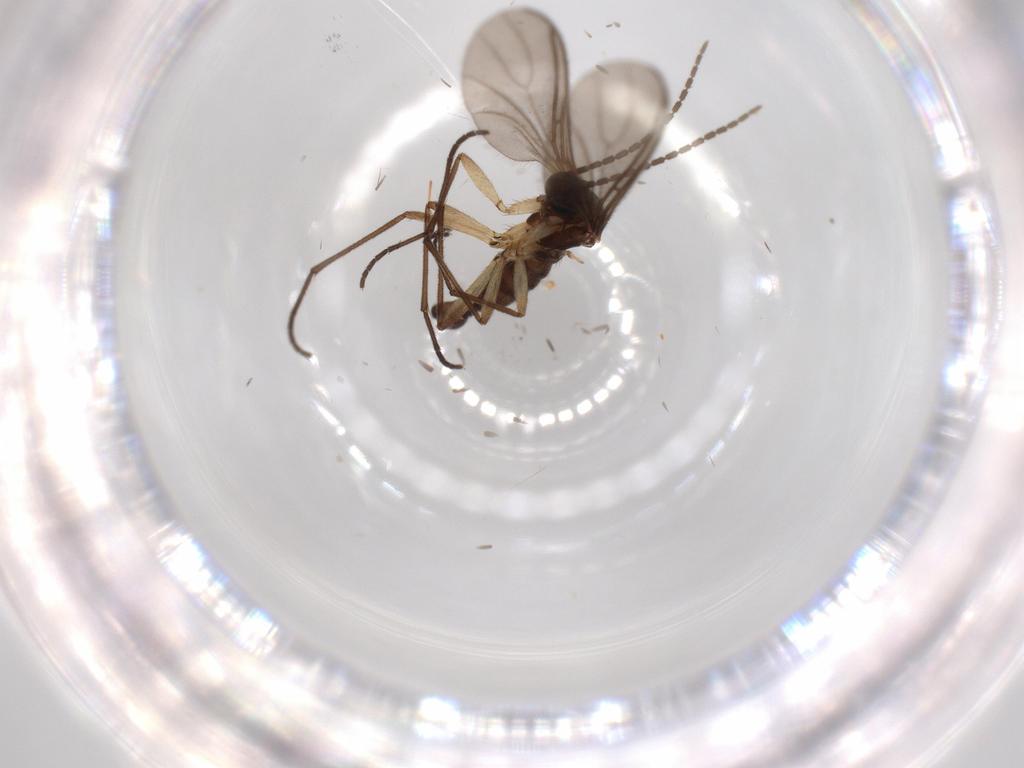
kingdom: Animalia
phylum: Arthropoda
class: Insecta
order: Diptera
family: Sciaridae
